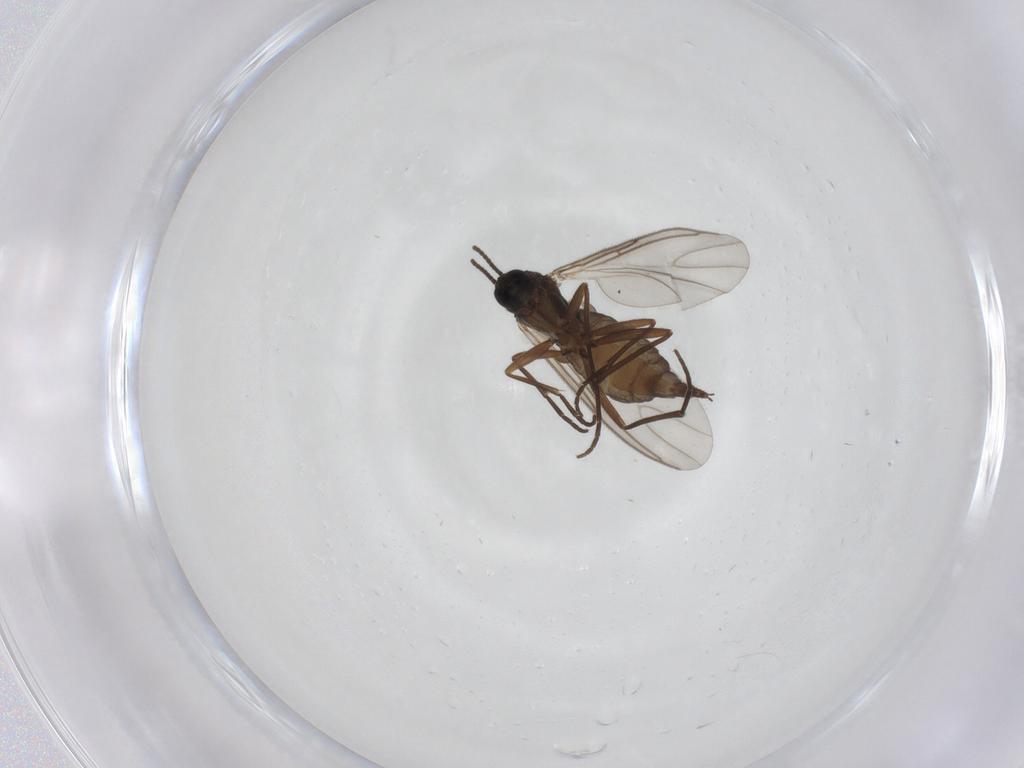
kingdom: Animalia
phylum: Arthropoda
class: Insecta
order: Diptera
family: Sciaridae
